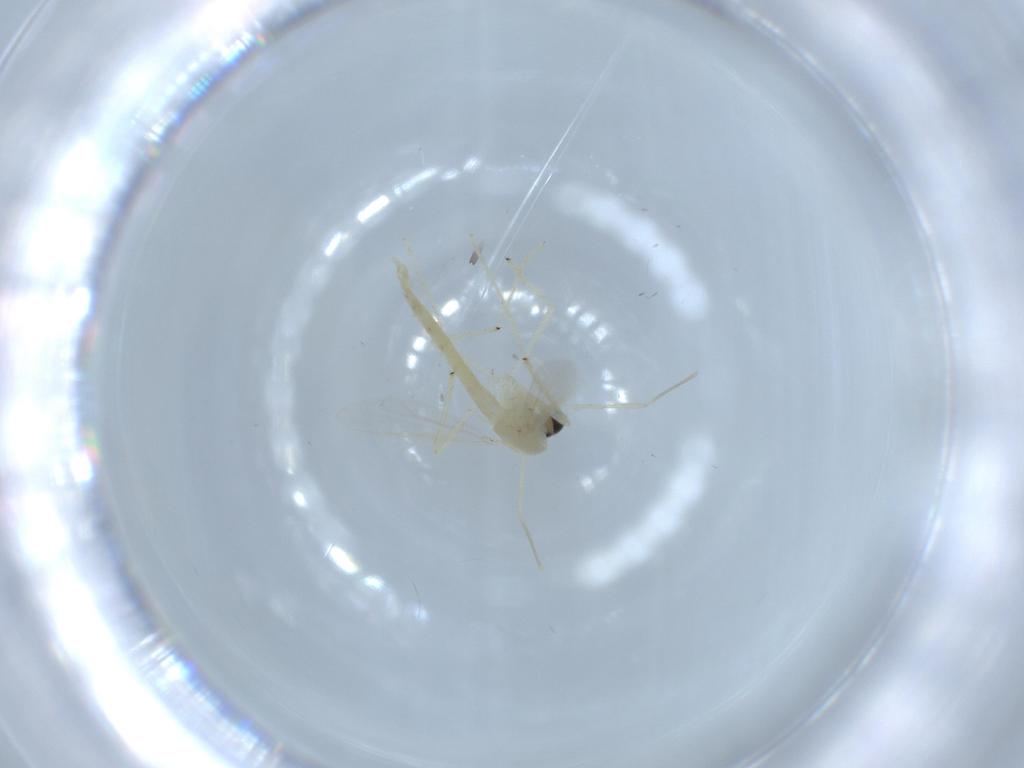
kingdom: Animalia
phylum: Arthropoda
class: Insecta
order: Diptera
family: Chironomidae
